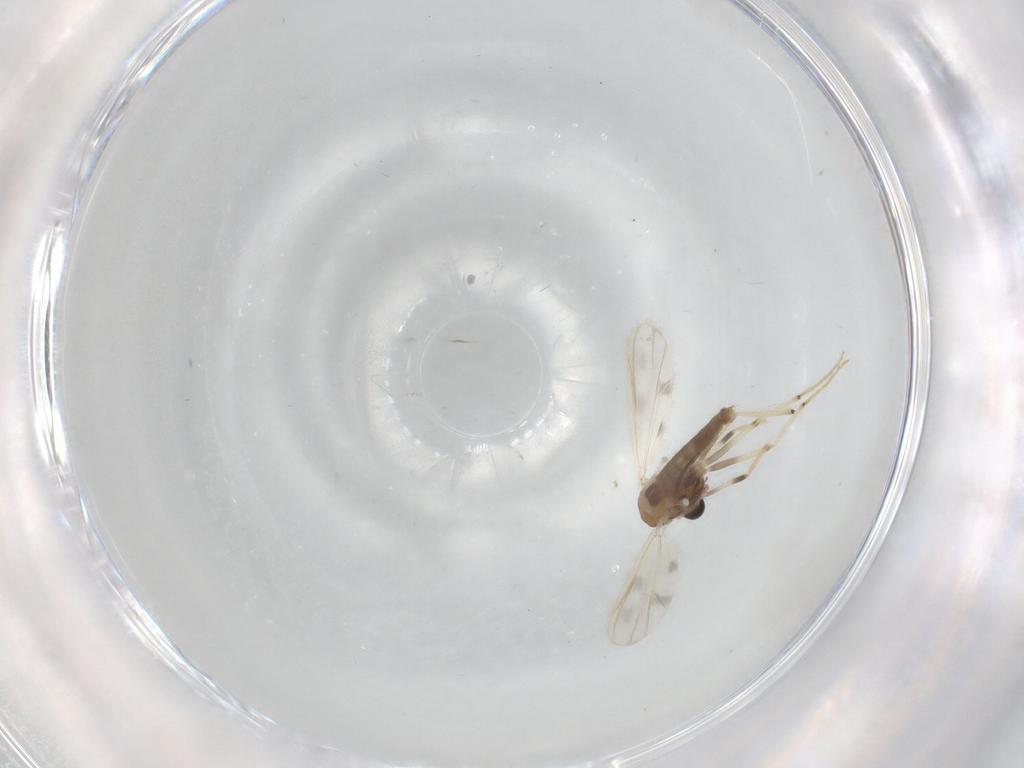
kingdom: Animalia
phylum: Arthropoda
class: Insecta
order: Diptera
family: Chironomidae
